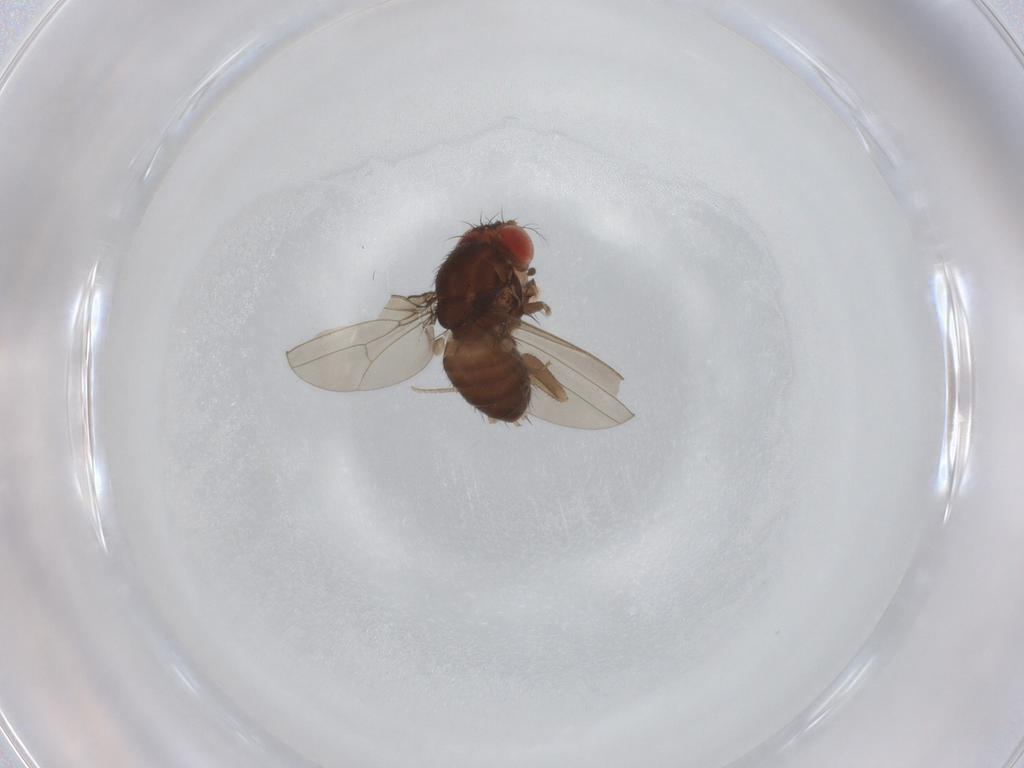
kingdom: Animalia
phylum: Arthropoda
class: Insecta
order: Diptera
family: Drosophilidae
